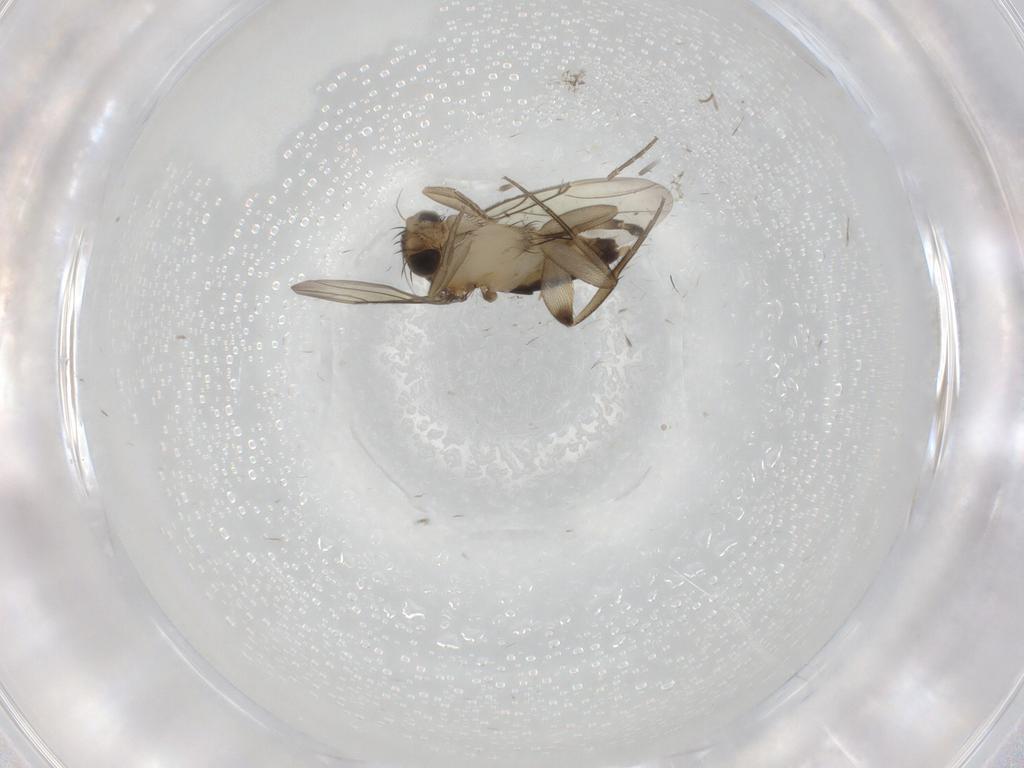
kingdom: Animalia
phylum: Arthropoda
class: Insecta
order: Diptera
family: Phoridae
